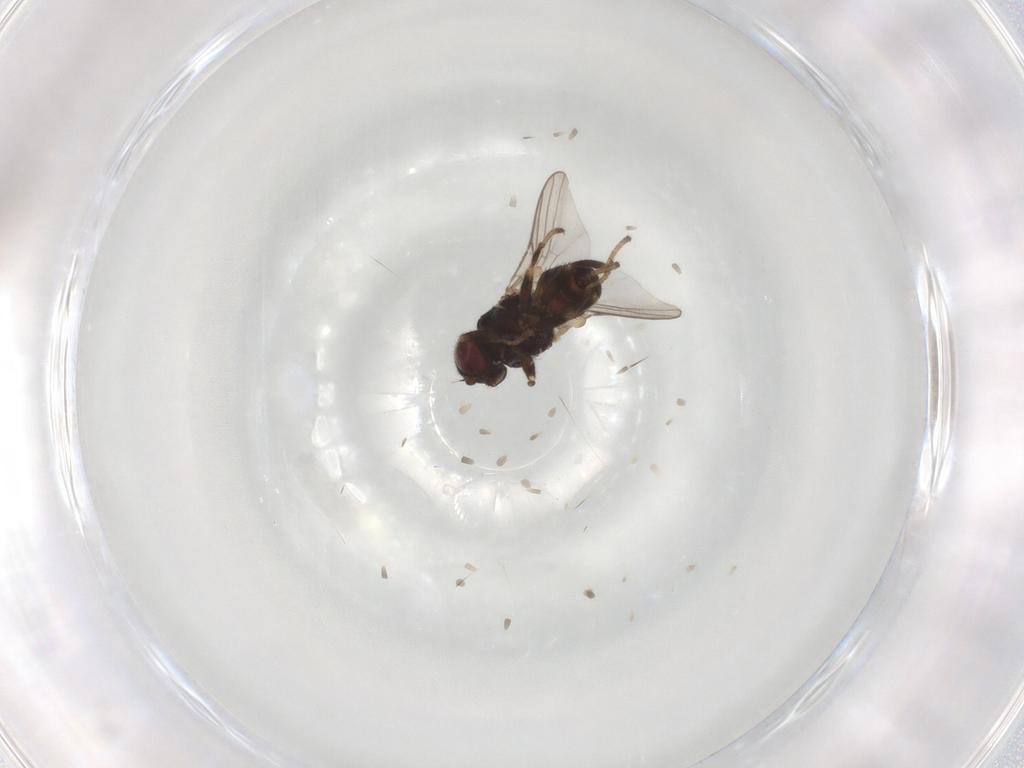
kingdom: Animalia
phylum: Arthropoda
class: Insecta
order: Diptera
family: Chloropidae
